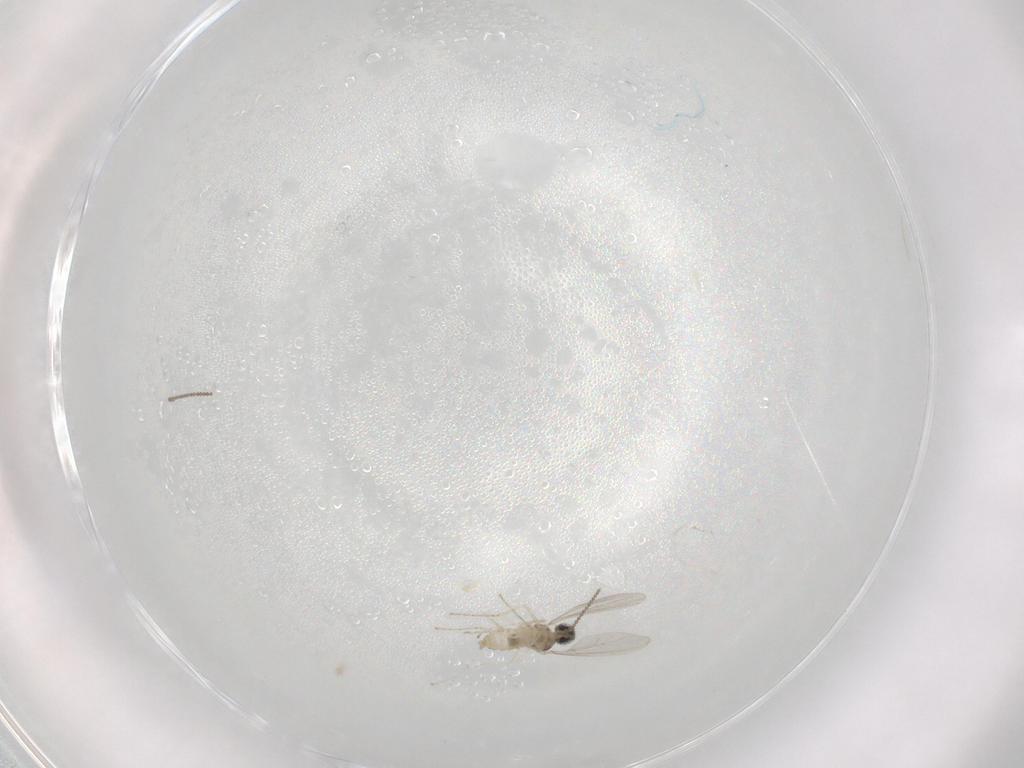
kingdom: Animalia
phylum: Arthropoda
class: Insecta
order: Diptera
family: Cecidomyiidae
